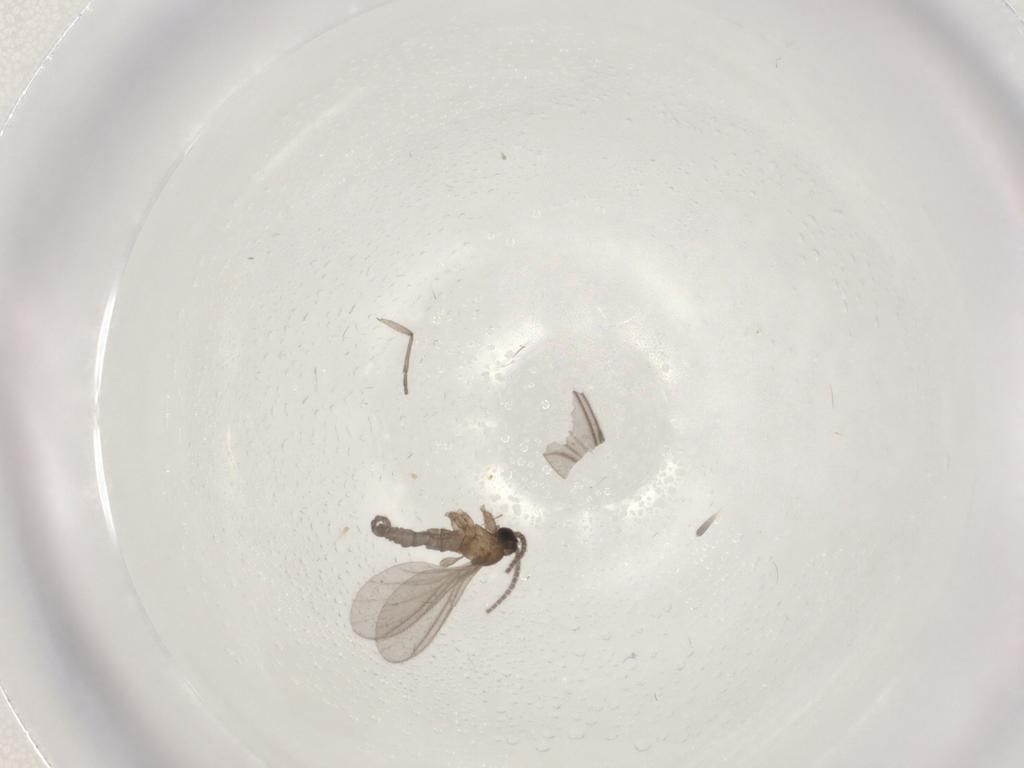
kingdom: Animalia
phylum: Arthropoda
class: Insecta
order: Diptera
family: Sciaridae
